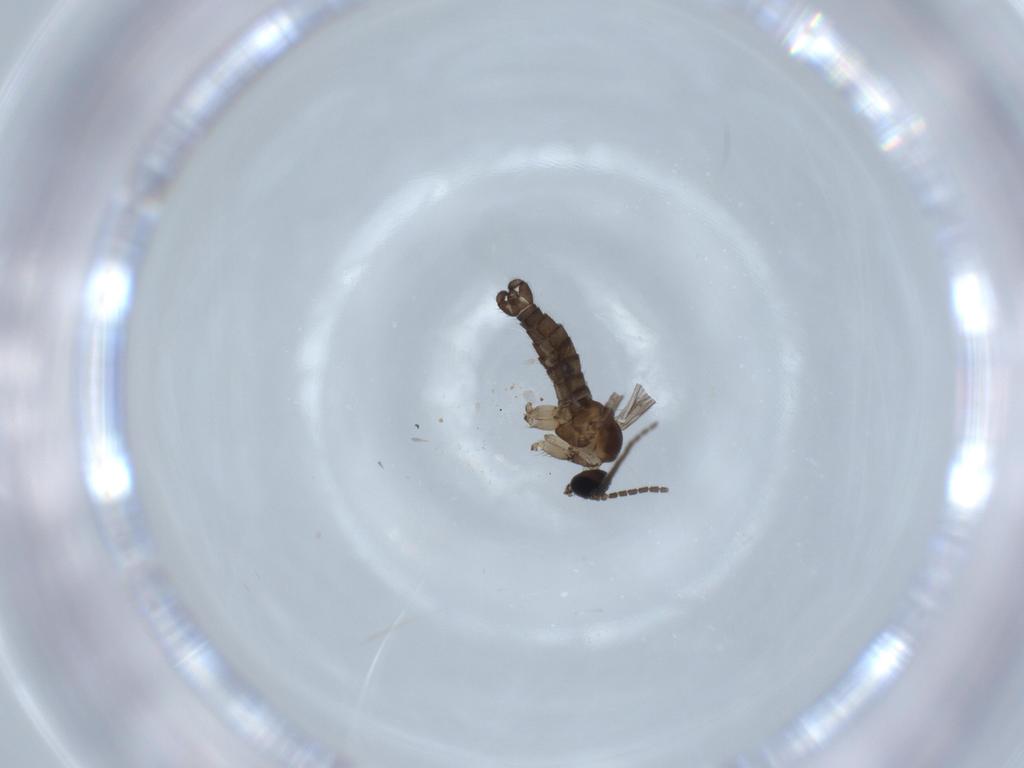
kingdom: Animalia
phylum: Arthropoda
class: Insecta
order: Diptera
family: Sciaridae
